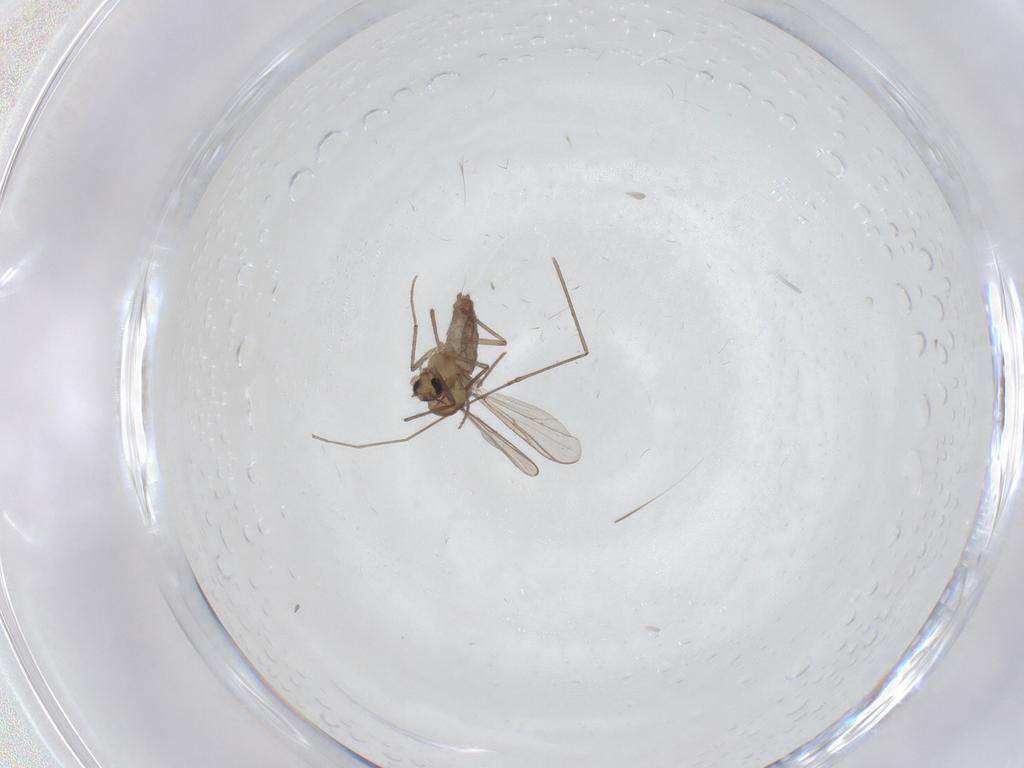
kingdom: Animalia
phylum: Arthropoda
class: Insecta
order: Diptera
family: Chironomidae
